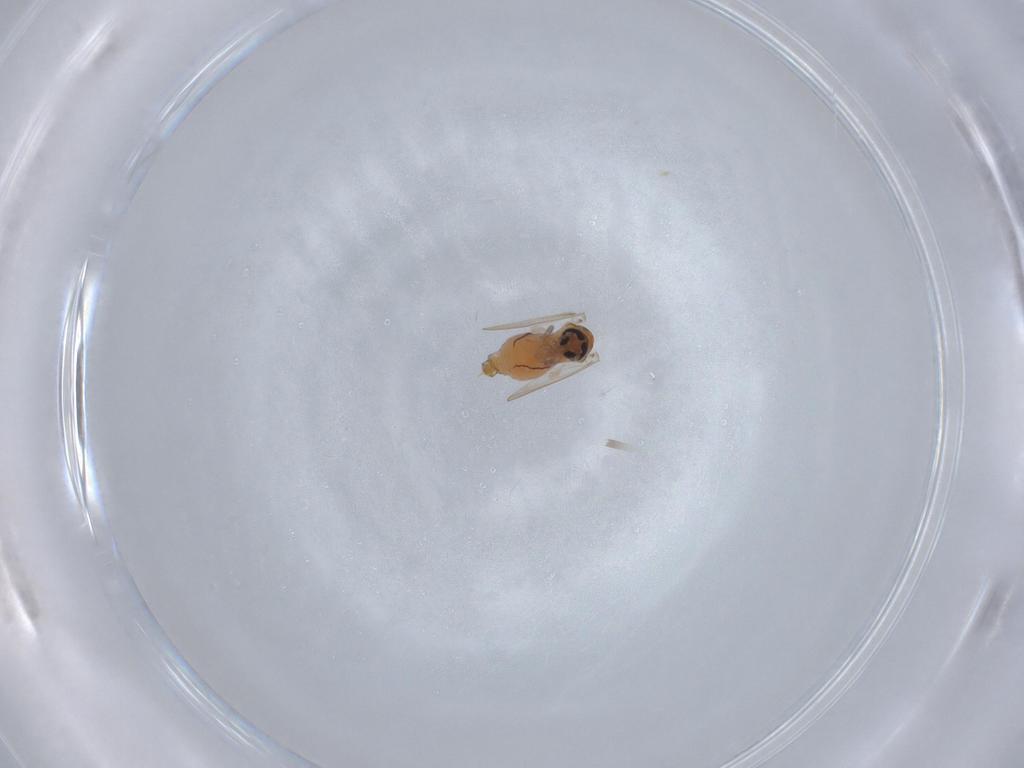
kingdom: Animalia
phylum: Arthropoda
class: Insecta
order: Diptera
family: Psychodidae
